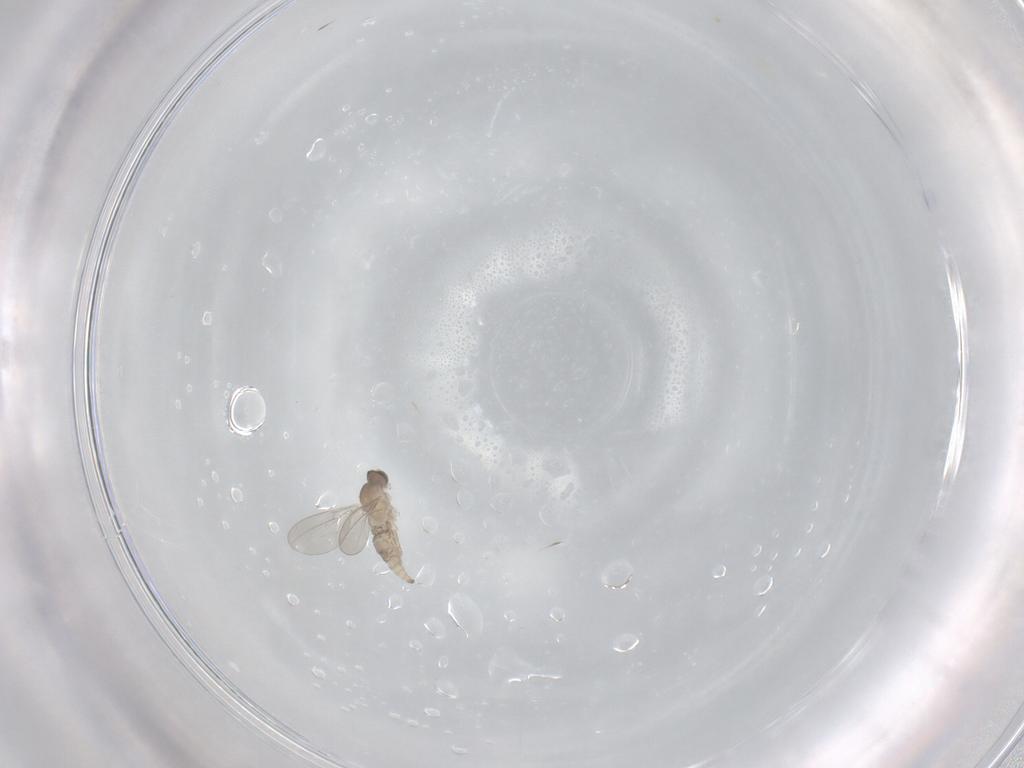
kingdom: Animalia
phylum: Arthropoda
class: Insecta
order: Diptera
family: Cecidomyiidae
